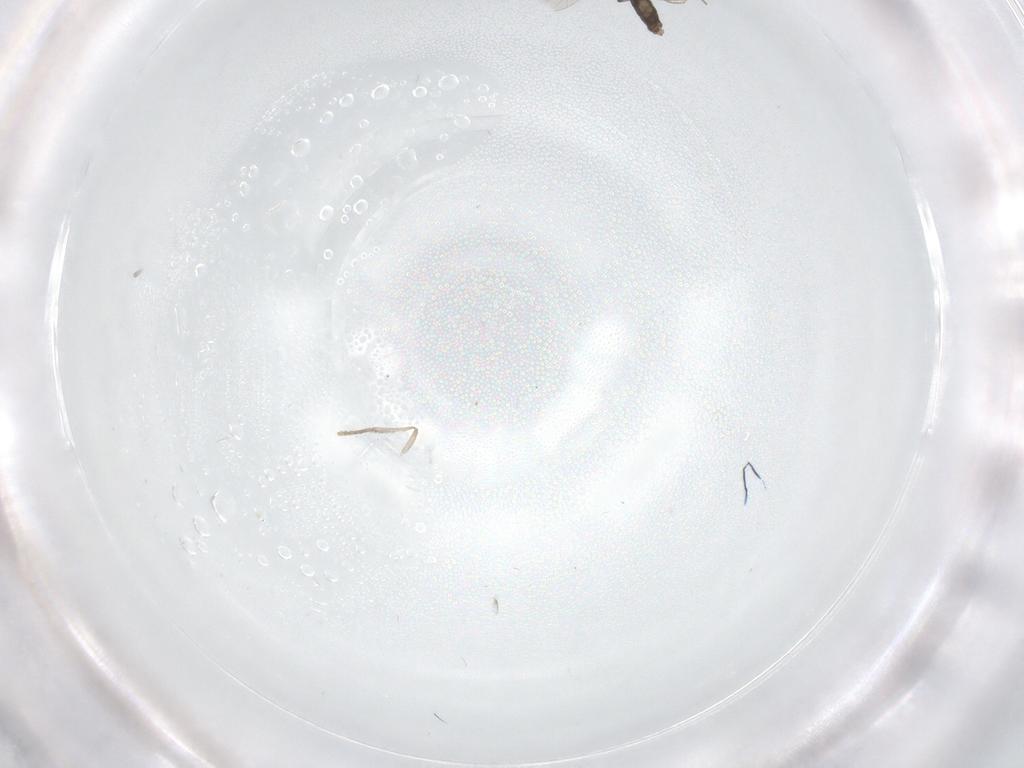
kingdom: Animalia
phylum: Arthropoda
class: Insecta
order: Diptera
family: Chironomidae
